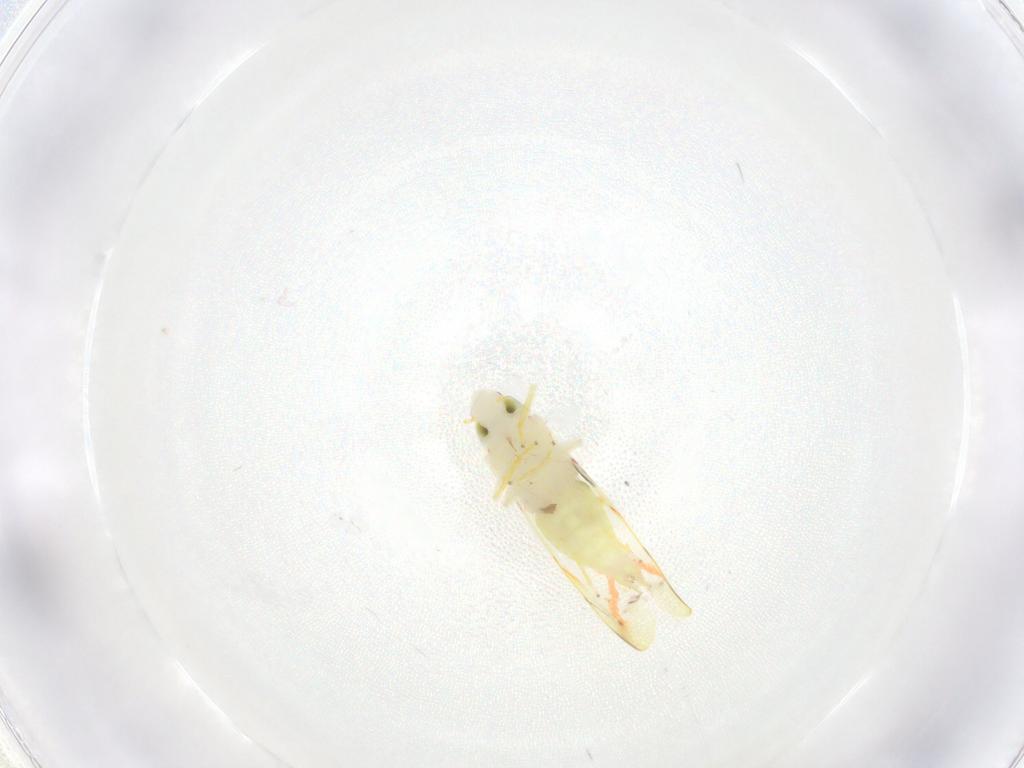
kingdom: Animalia
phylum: Arthropoda
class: Insecta
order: Hemiptera
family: Cicadellidae
